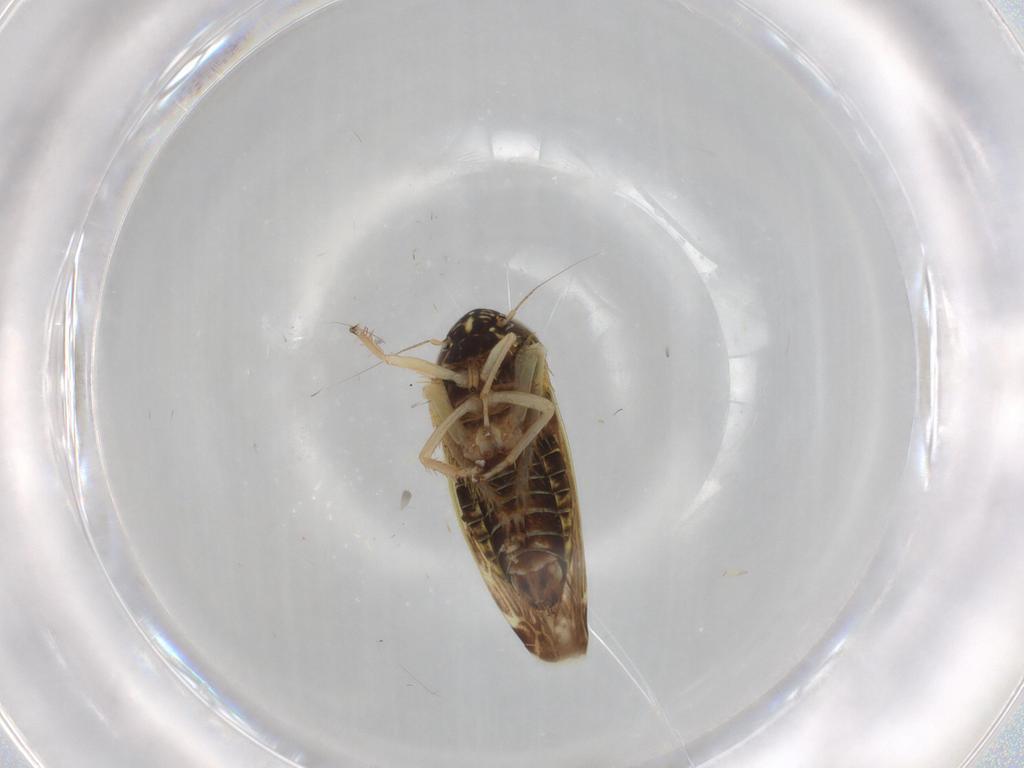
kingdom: Animalia
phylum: Arthropoda
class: Insecta
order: Hemiptera
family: Cicadellidae
